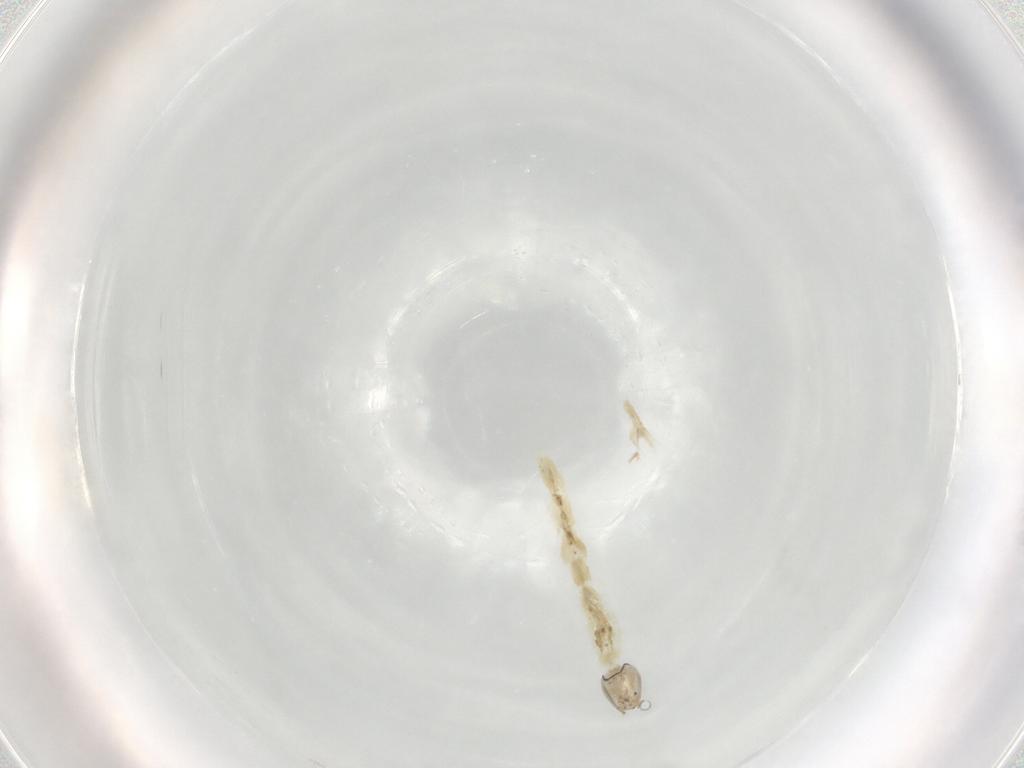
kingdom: Animalia
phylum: Arthropoda
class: Insecta
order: Diptera
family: Chironomidae
